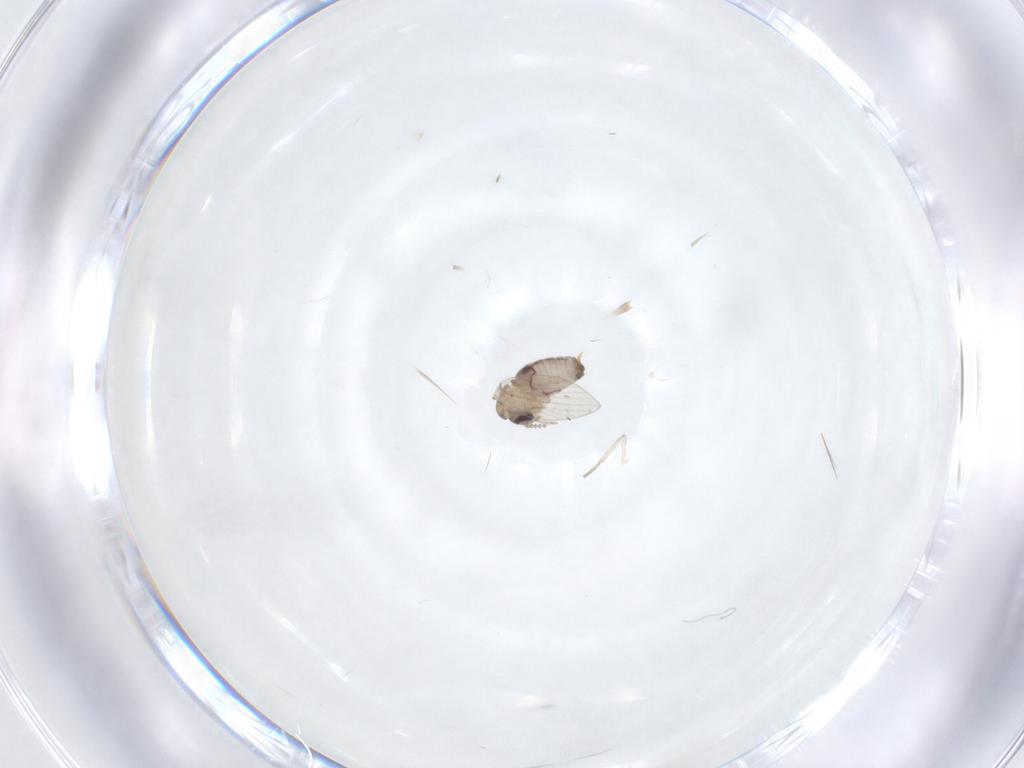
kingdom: Animalia
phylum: Arthropoda
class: Insecta
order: Diptera
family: Psychodidae
